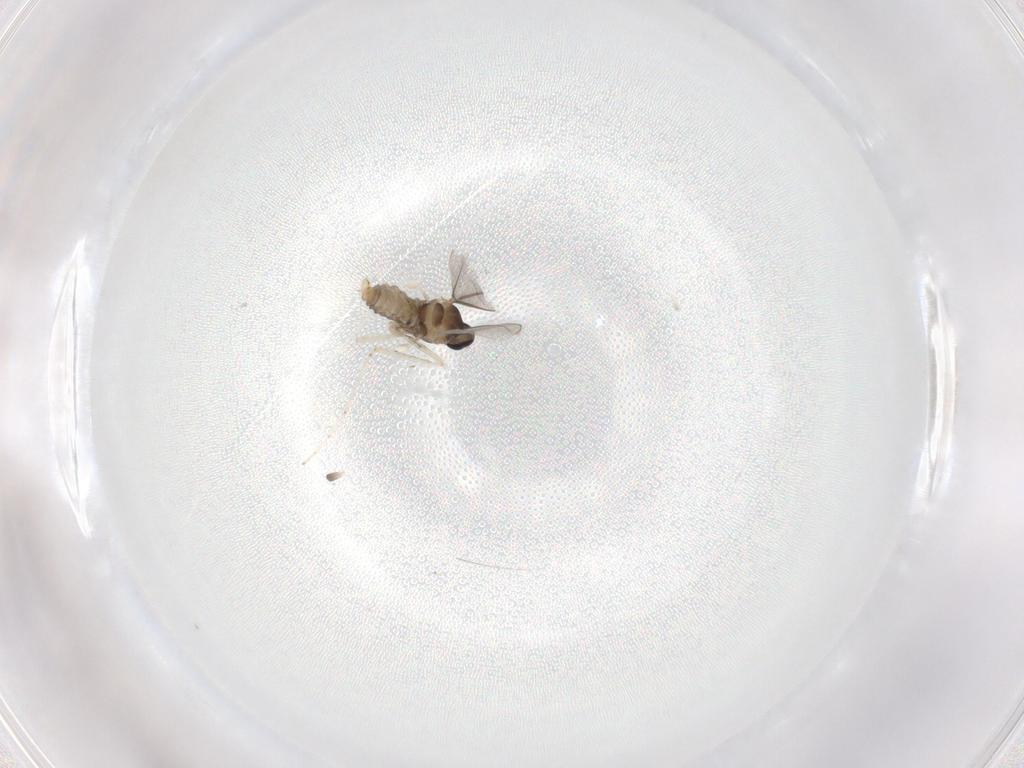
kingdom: Animalia
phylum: Arthropoda
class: Insecta
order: Diptera
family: Cecidomyiidae
